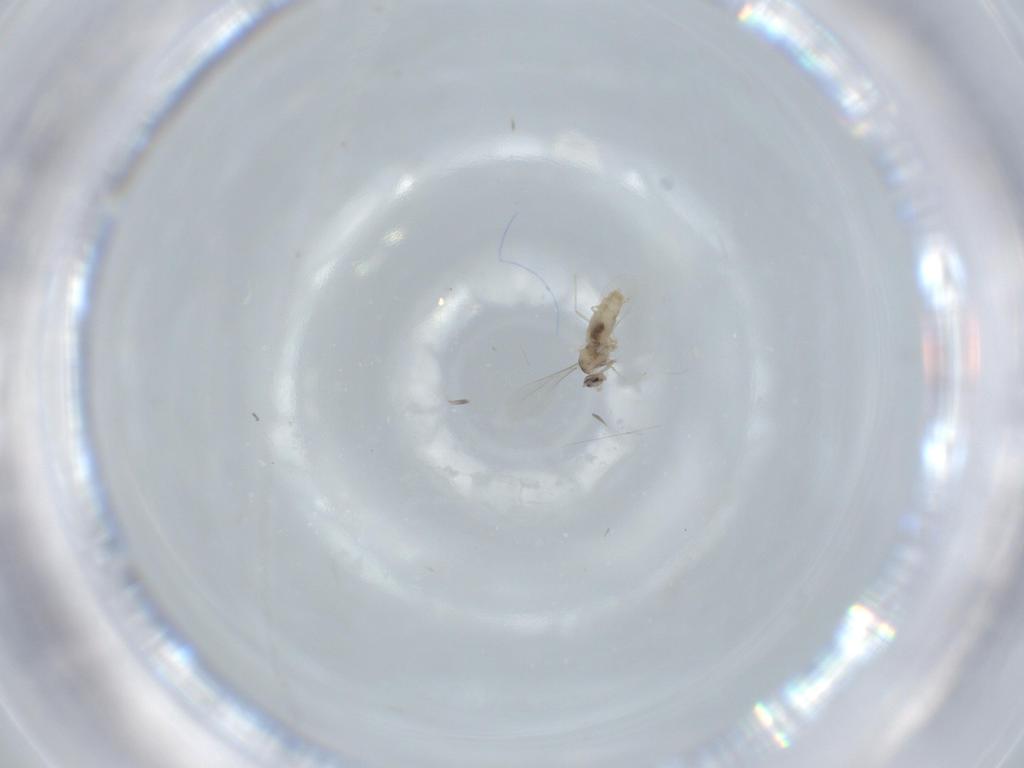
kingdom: Animalia
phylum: Arthropoda
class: Insecta
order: Diptera
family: Cecidomyiidae
